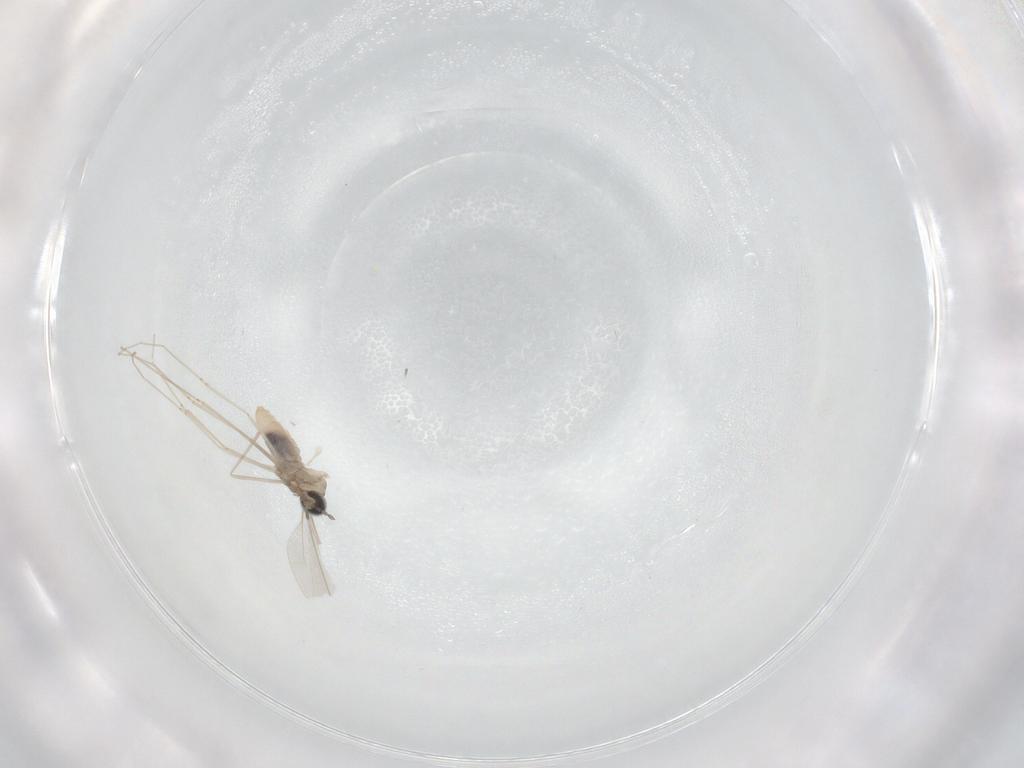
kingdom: Animalia
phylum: Arthropoda
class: Insecta
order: Diptera
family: Cecidomyiidae
